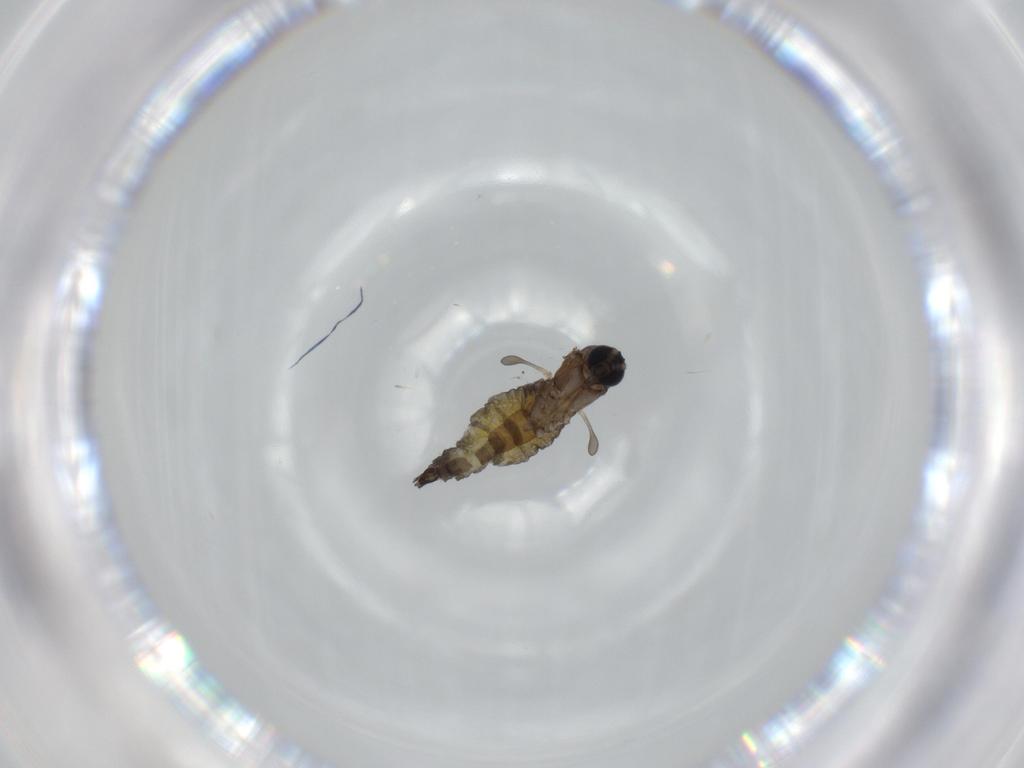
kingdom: Animalia
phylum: Arthropoda
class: Insecta
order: Diptera
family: Sciaridae
